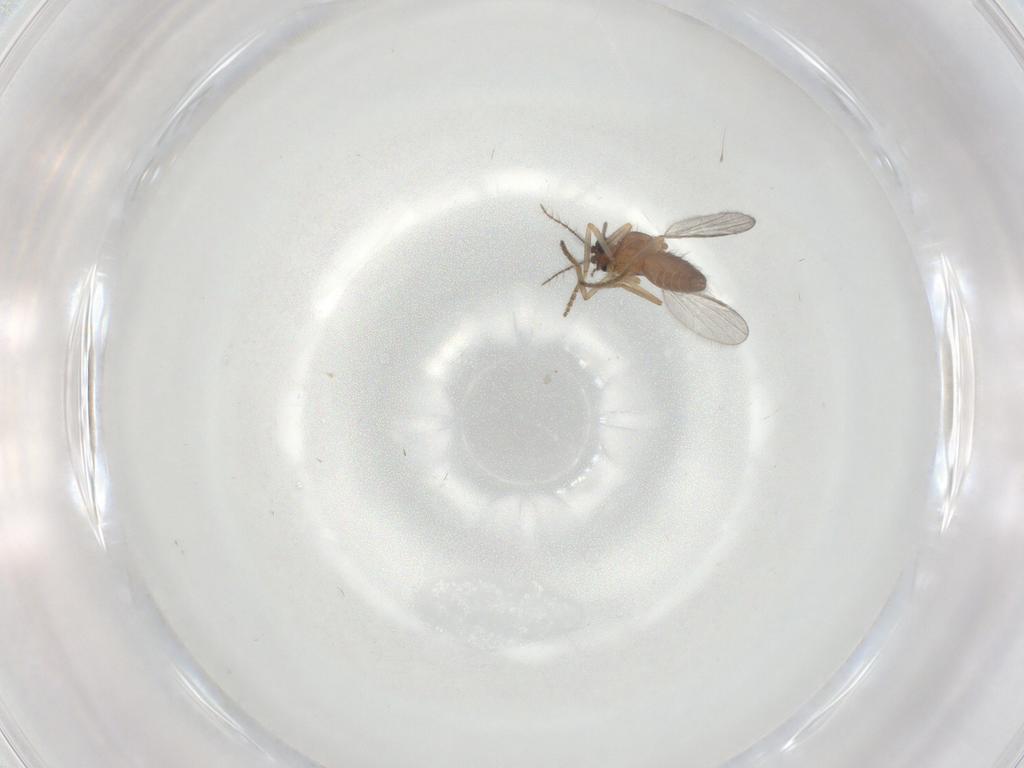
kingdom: Animalia
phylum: Arthropoda
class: Insecta
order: Diptera
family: Ceratopogonidae
